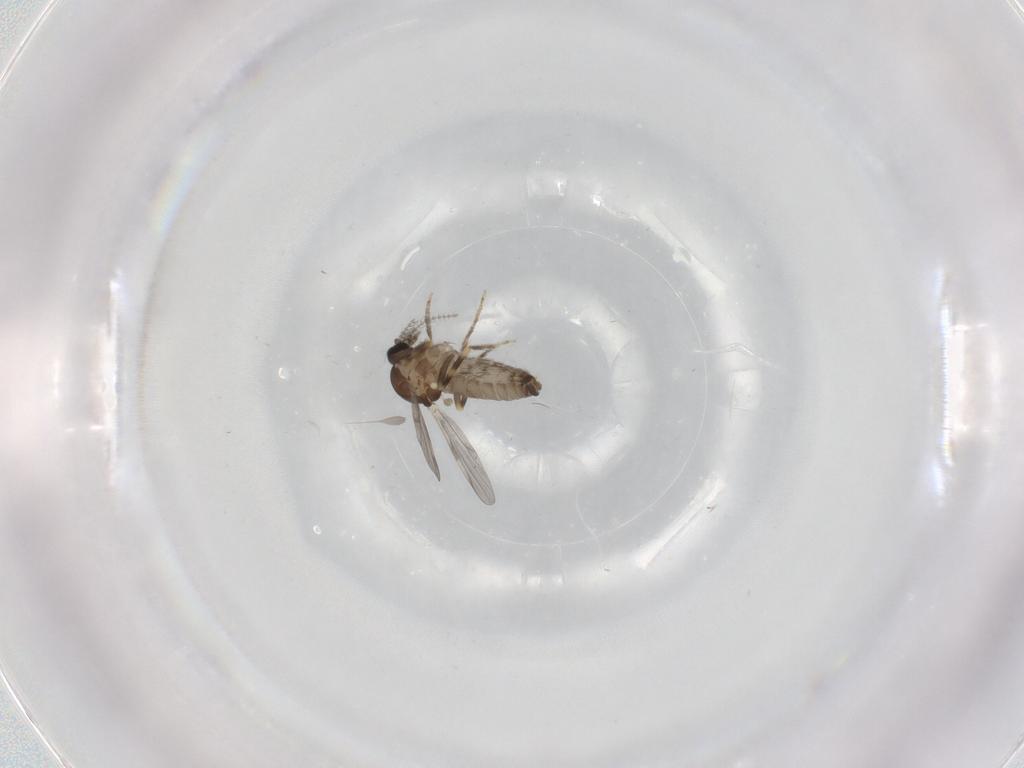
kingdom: Animalia
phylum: Arthropoda
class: Insecta
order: Diptera
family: Ceratopogonidae
